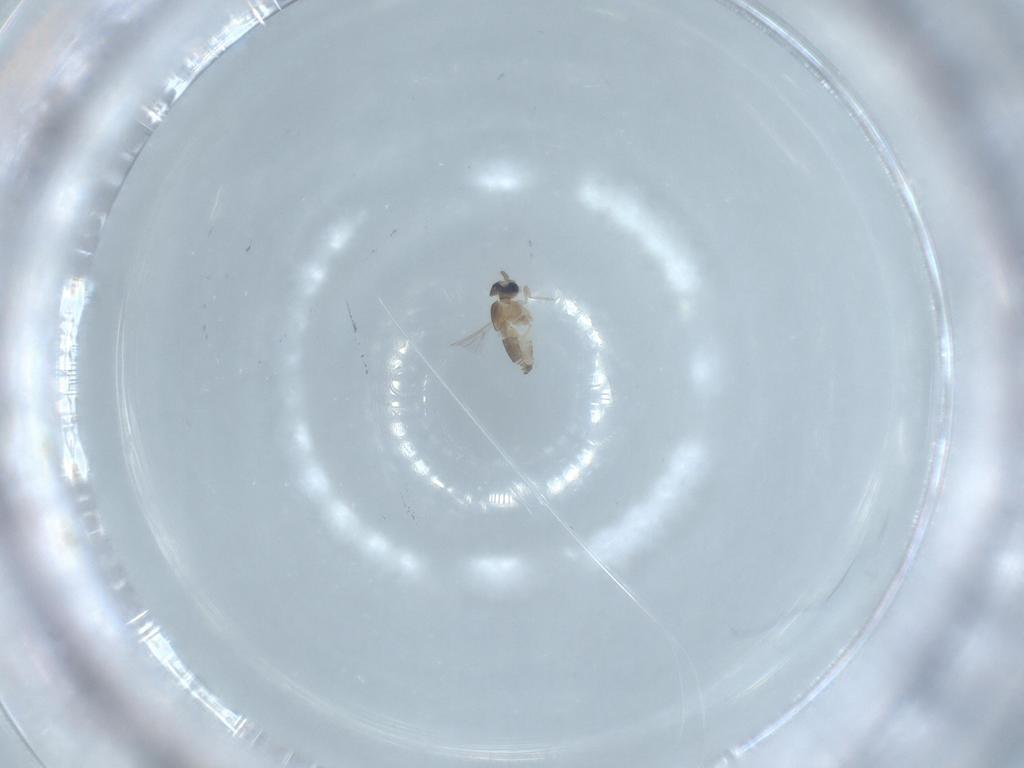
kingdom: Animalia
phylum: Arthropoda
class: Insecta
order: Diptera
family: Cecidomyiidae
